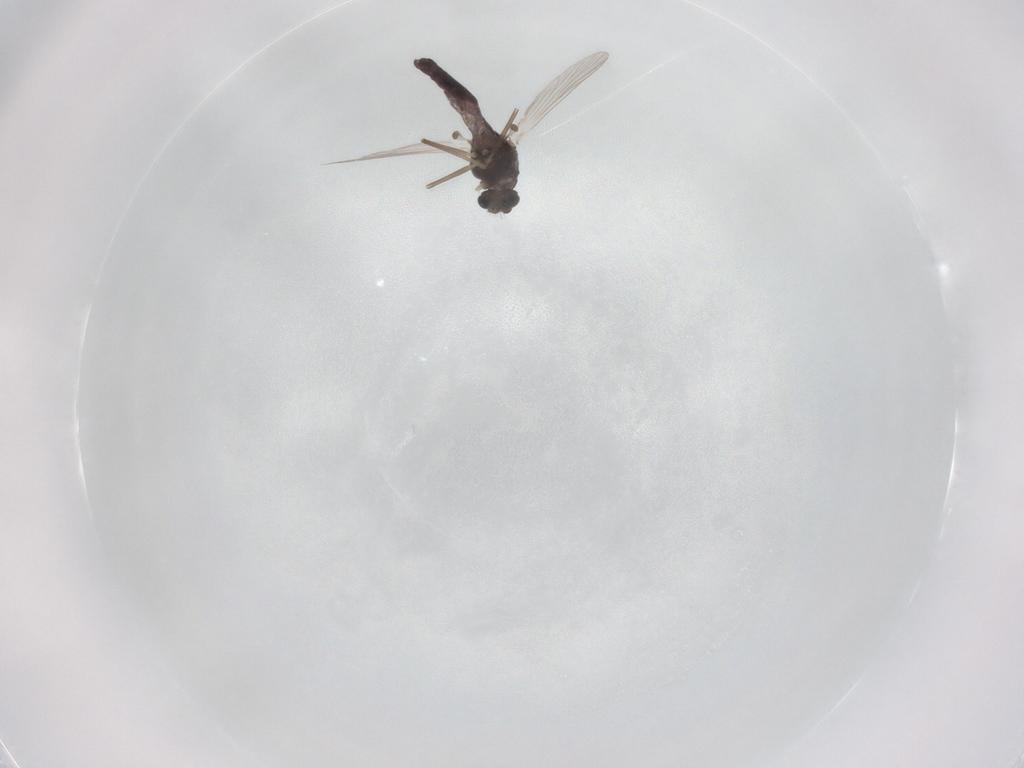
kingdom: Animalia
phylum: Arthropoda
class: Insecta
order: Diptera
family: Chironomidae
